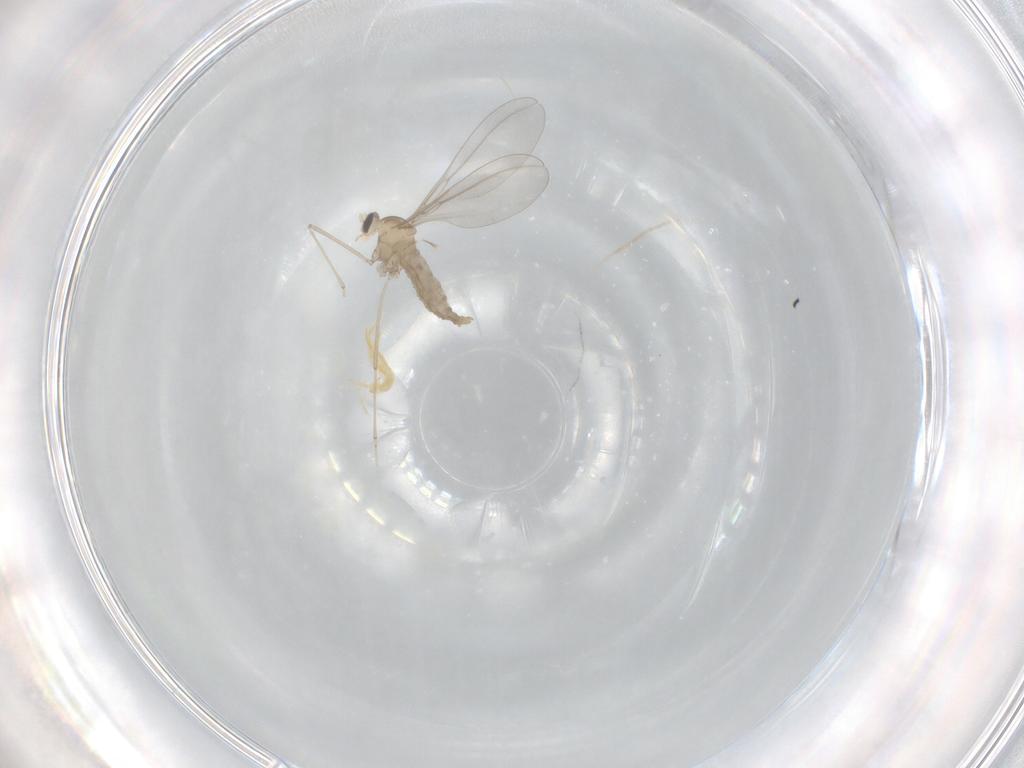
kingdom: Animalia
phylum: Arthropoda
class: Insecta
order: Diptera
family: Cecidomyiidae
